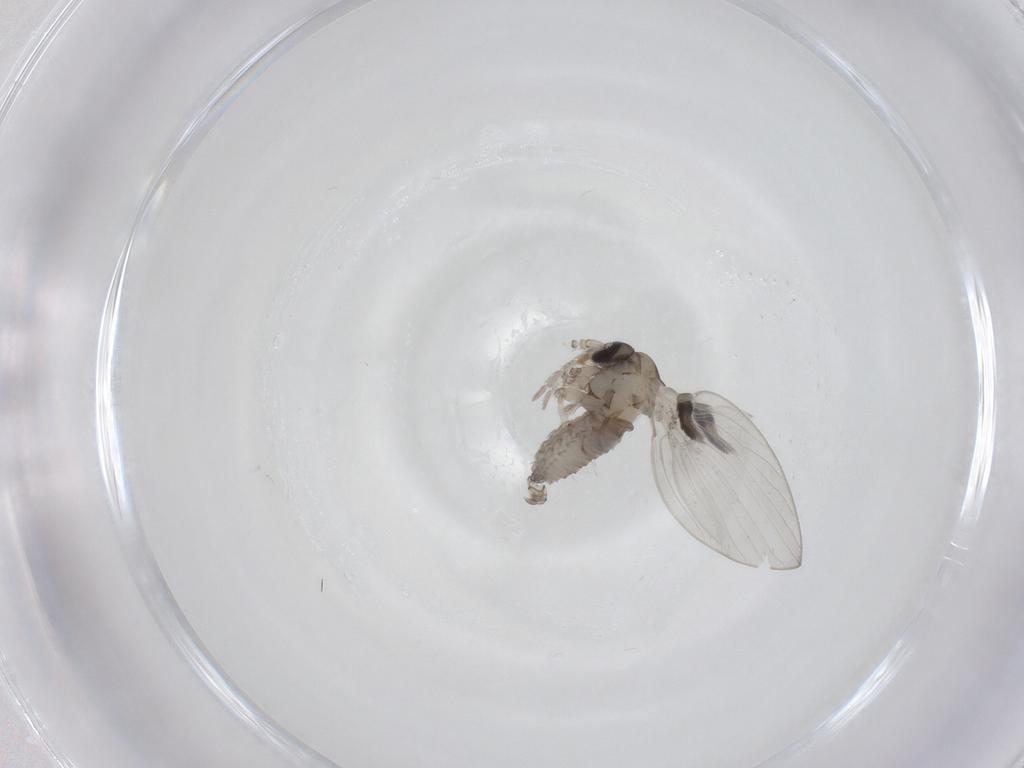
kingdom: Animalia
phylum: Arthropoda
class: Insecta
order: Diptera
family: Psychodidae
